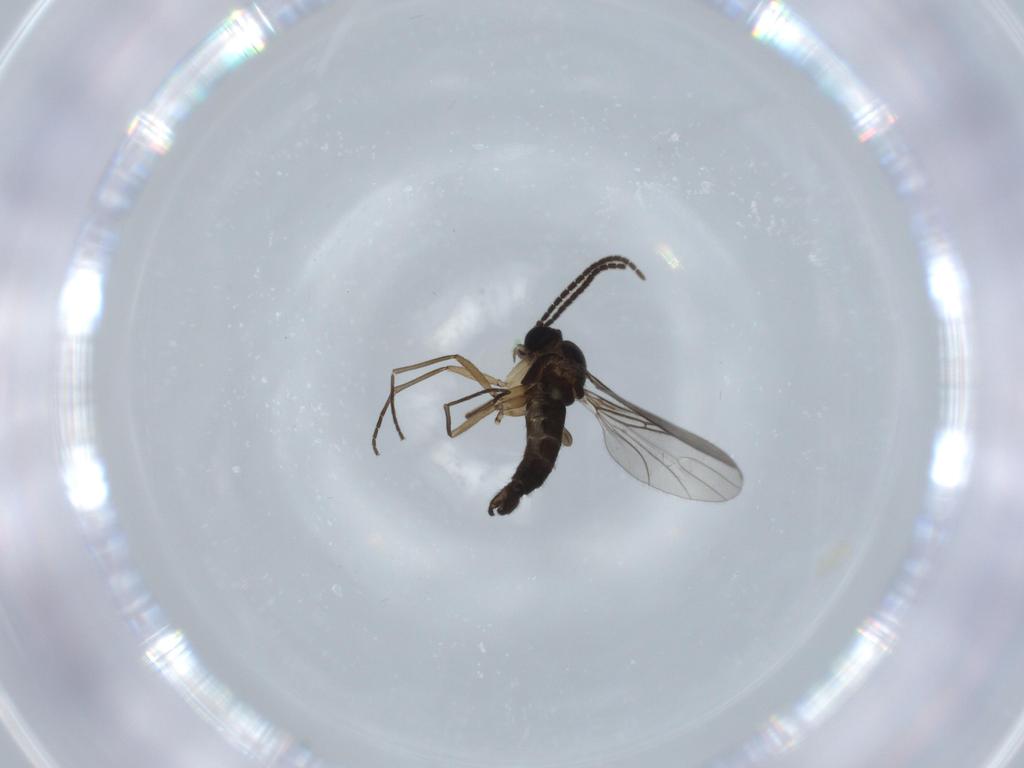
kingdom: Animalia
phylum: Arthropoda
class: Insecta
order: Diptera
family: Sciaridae
